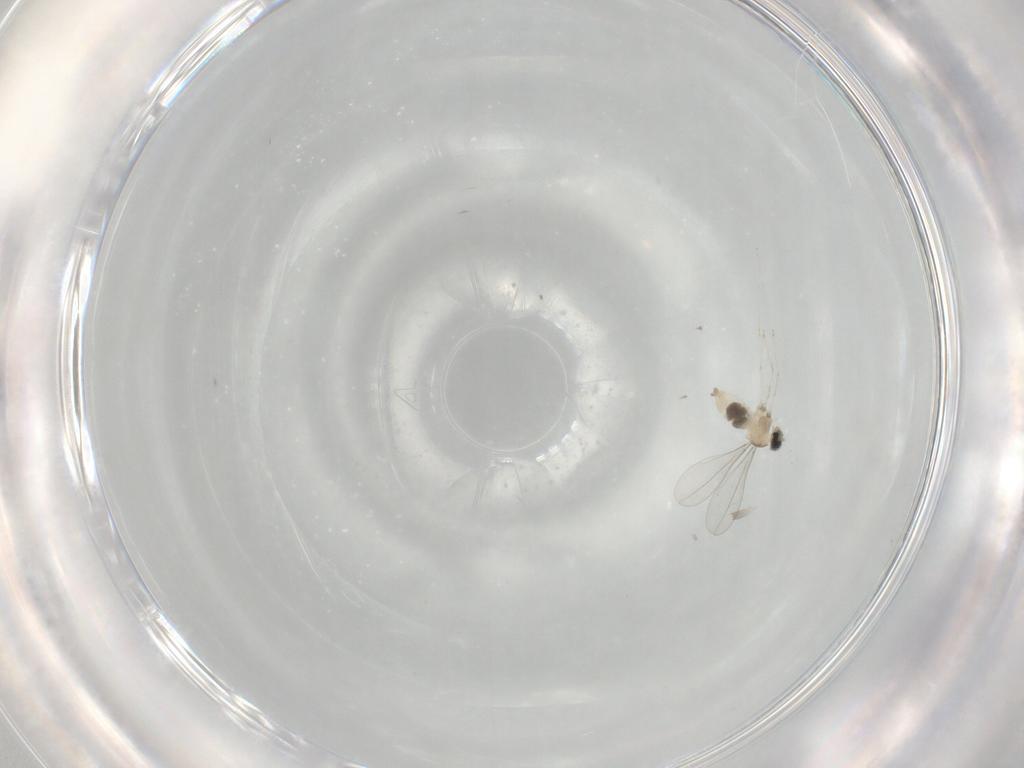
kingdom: Animalia
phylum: Arthropoda
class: Insecta
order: Diptera
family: Cecidomyiidae
